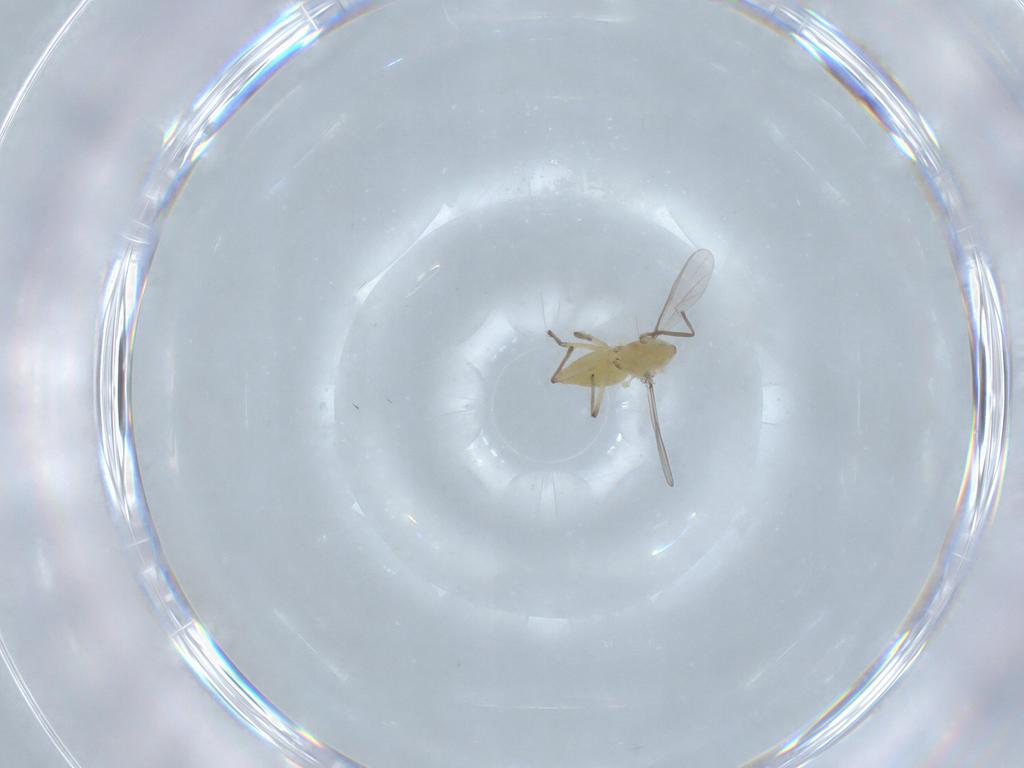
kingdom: Animalia
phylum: Arthropoda
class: Insecta
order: Diptera
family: Chironomidae
